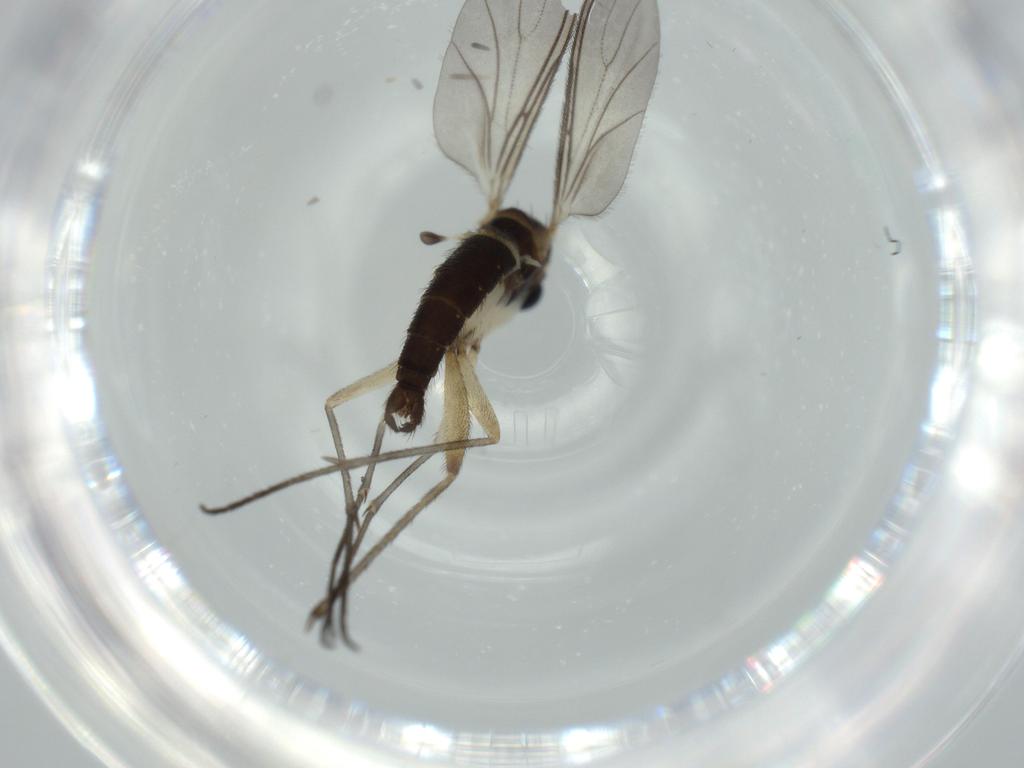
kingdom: Animalia
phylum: Arthropoda
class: Insecta
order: Diptera
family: Sciaridae
